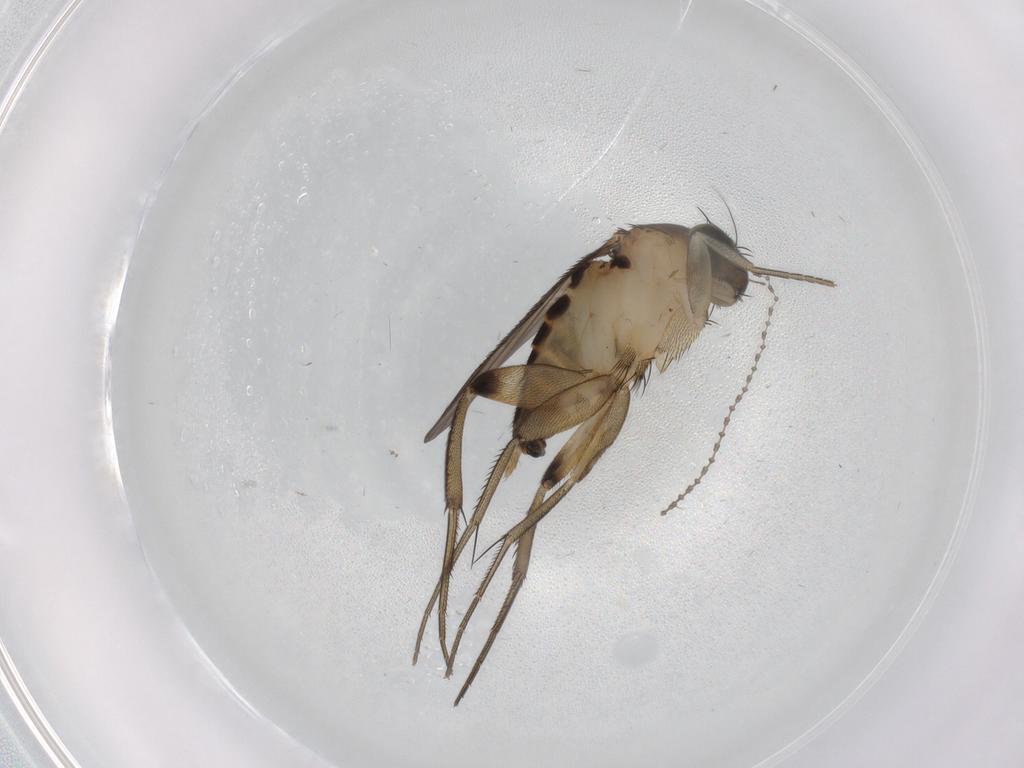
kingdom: Animalia
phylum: Arthropoda
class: Insecta
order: Diptera
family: Phoridae
